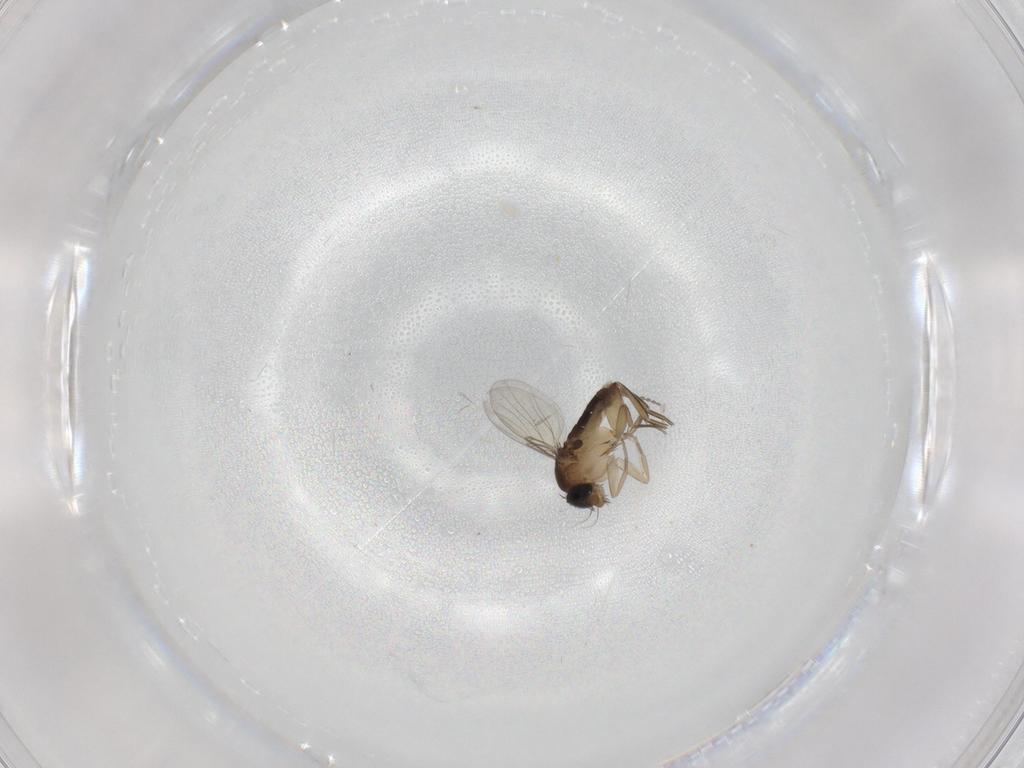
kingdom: Animalia
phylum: Arthropoda
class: Insecta
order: Diptera
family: Phoridae
